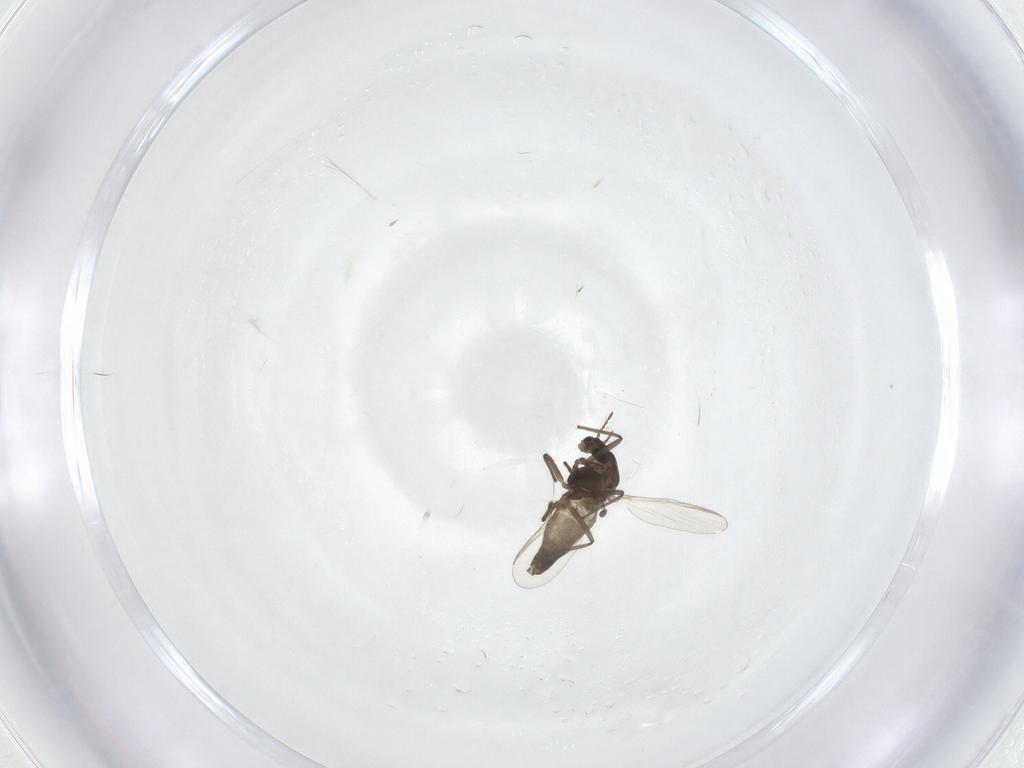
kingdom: Animalia
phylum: Arthropoda
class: Insecta
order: Diptera
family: Chironomidae
